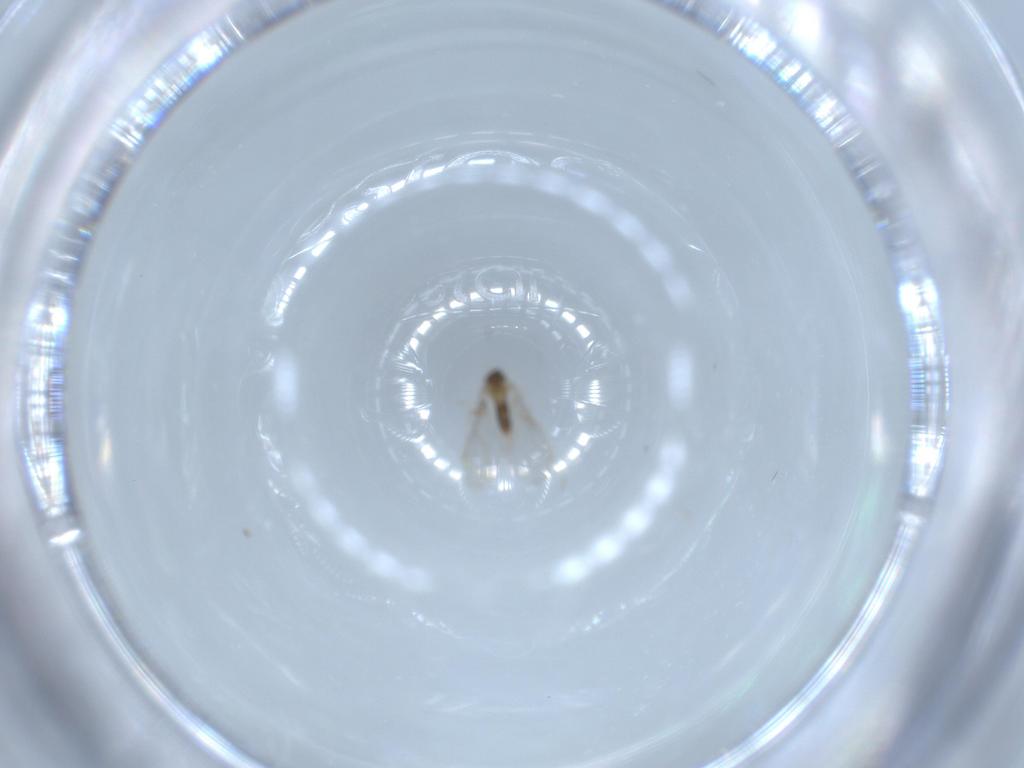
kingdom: Animalia
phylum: Arthropoda
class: Insecta
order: Diptera
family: Cecidomyiidae
